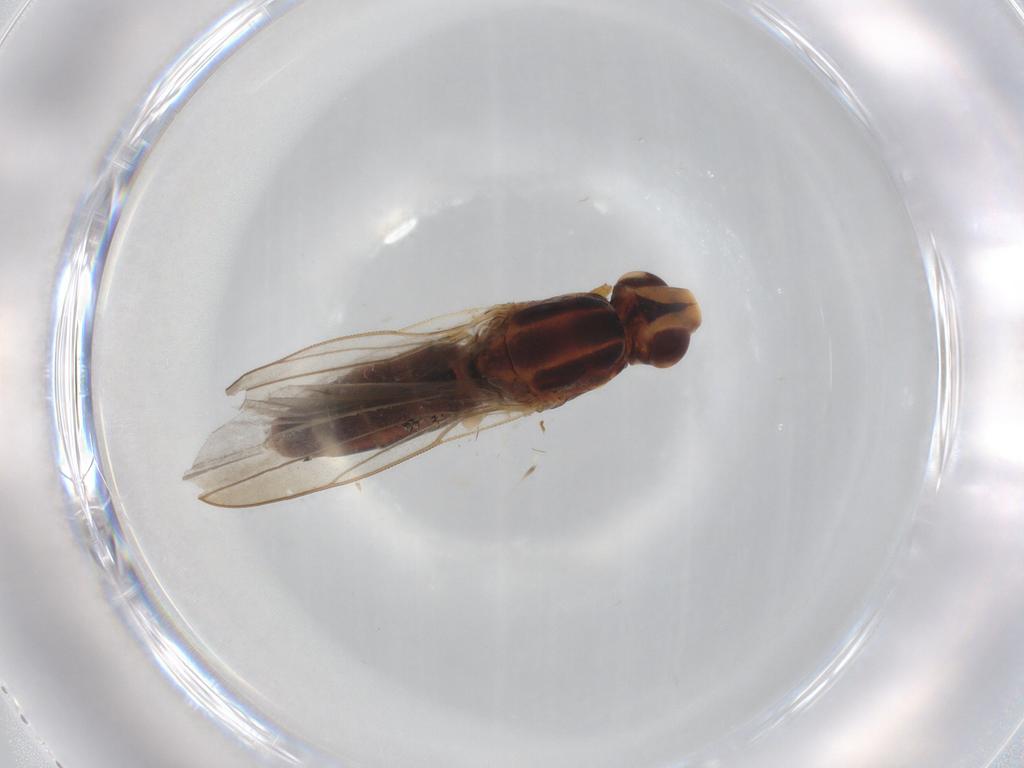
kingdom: Animalia
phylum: Arthropoda
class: Insecta
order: Diptera
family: Chloropidae
